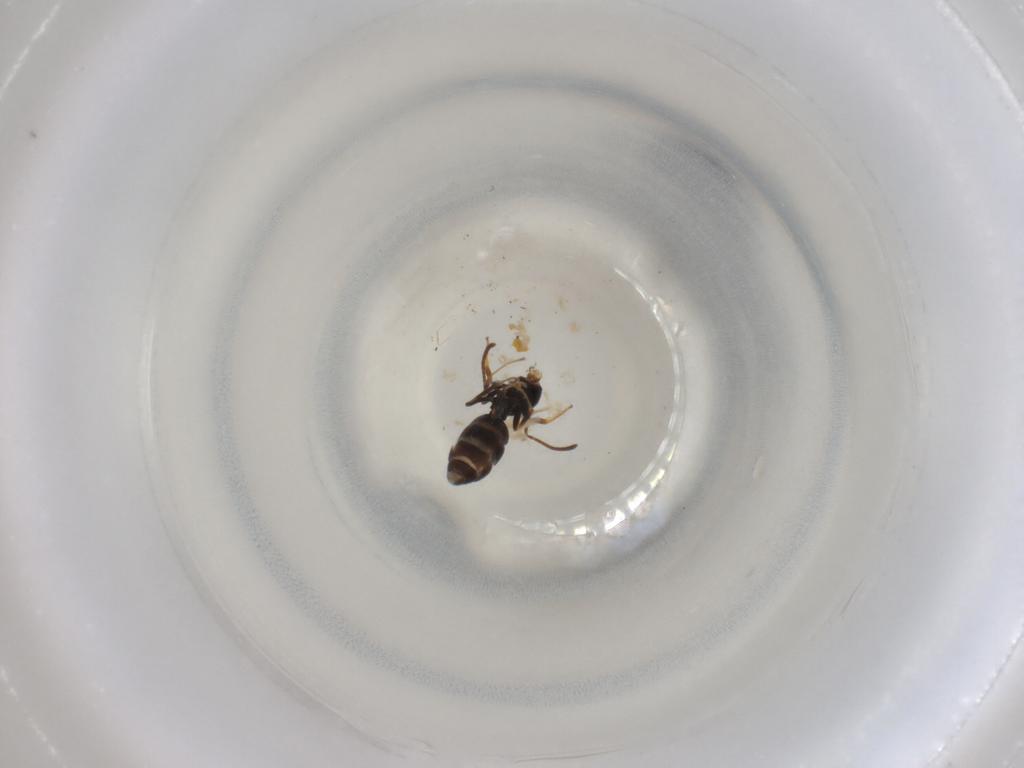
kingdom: Animalia
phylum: Arthropoda
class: Insecta
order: Hymenoptera
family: Formicidae
